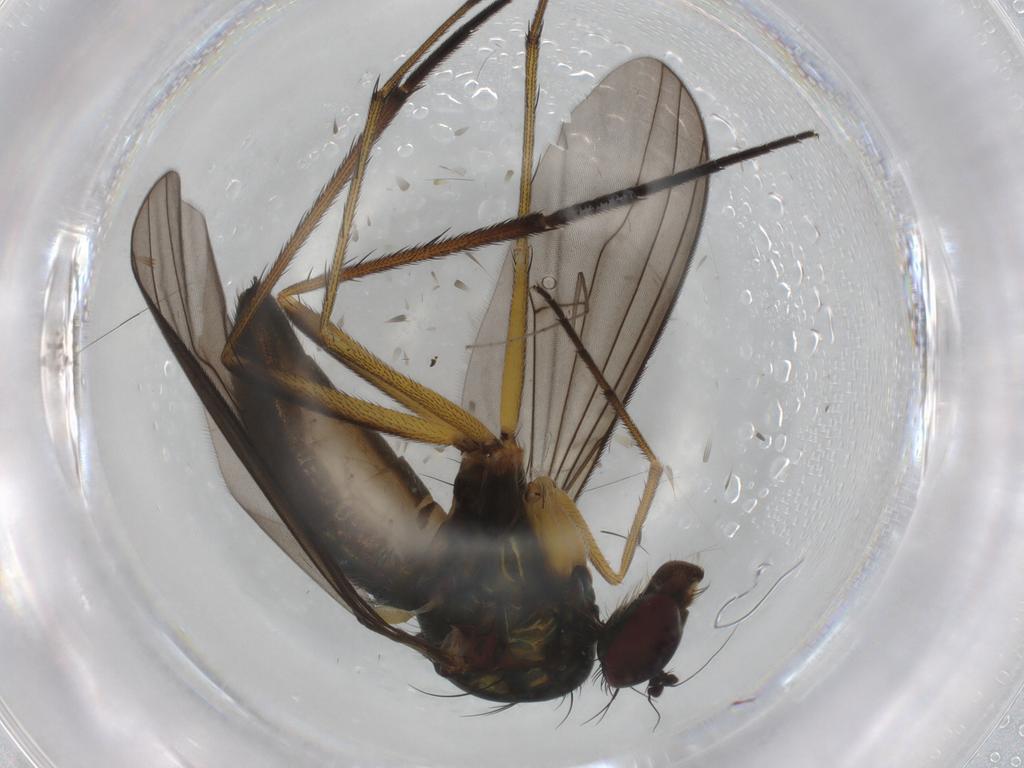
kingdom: Animalia
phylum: Arthropoda
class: Insecta
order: Diptera
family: Dolichopodidae
